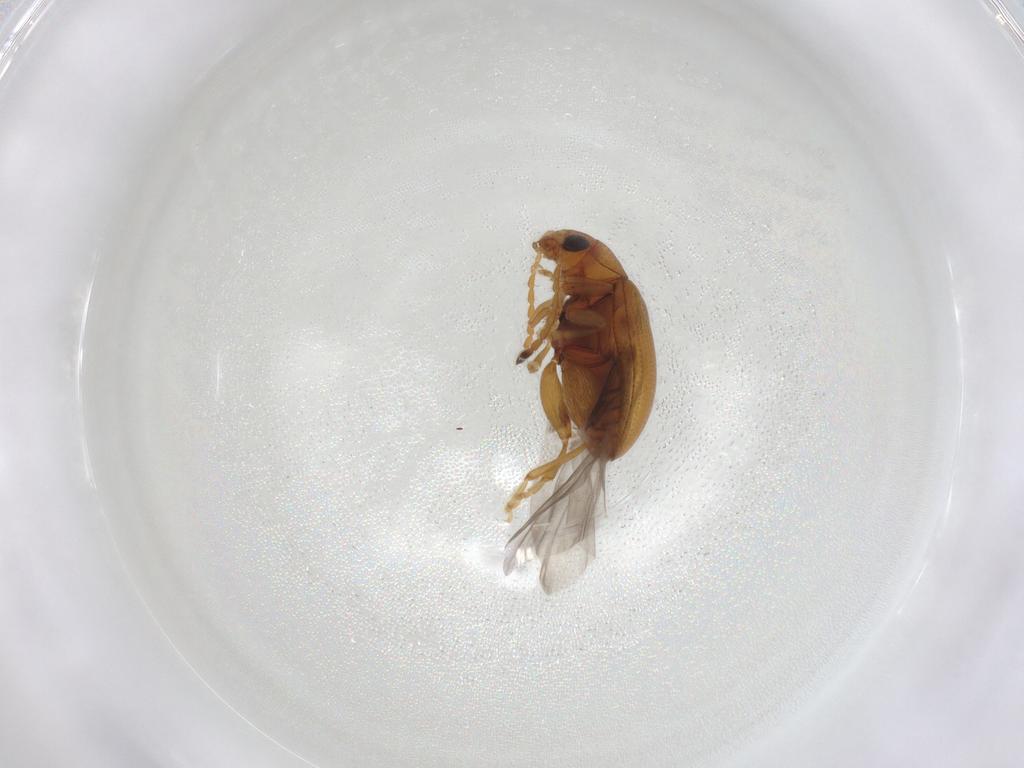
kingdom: Animalia
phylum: Arthropoda
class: Insecta
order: Coleoptera
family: Chrysomelidae
